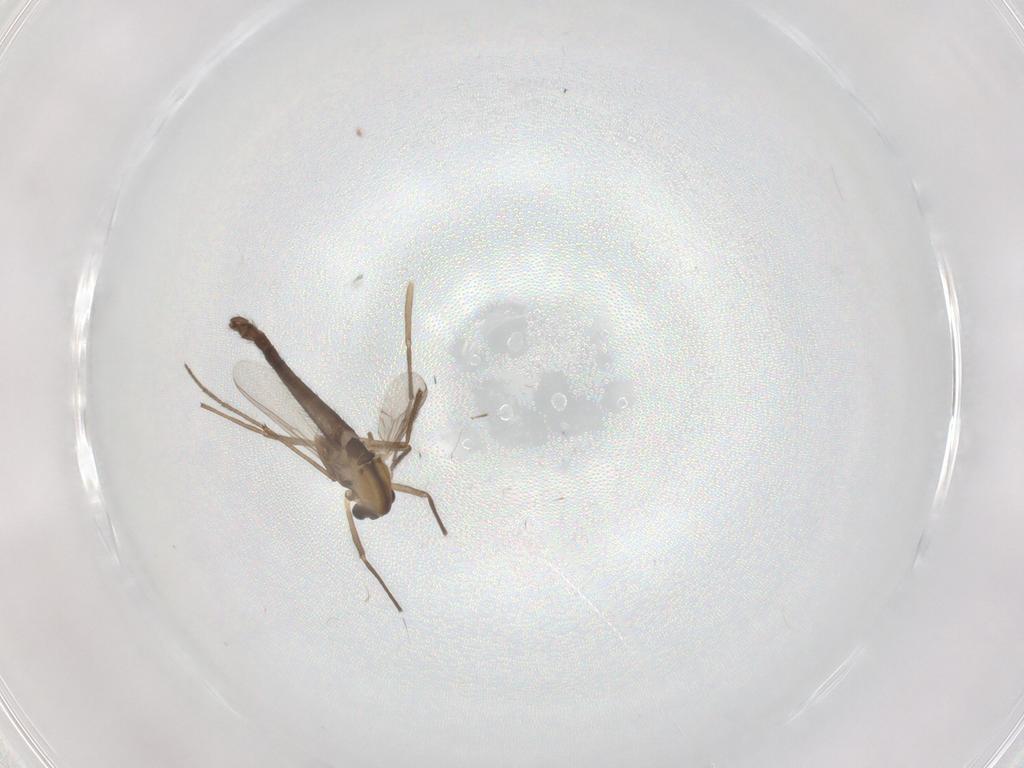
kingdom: Animalia
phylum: Arthropoda
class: Insecta
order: Diptera
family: Chironomidae
